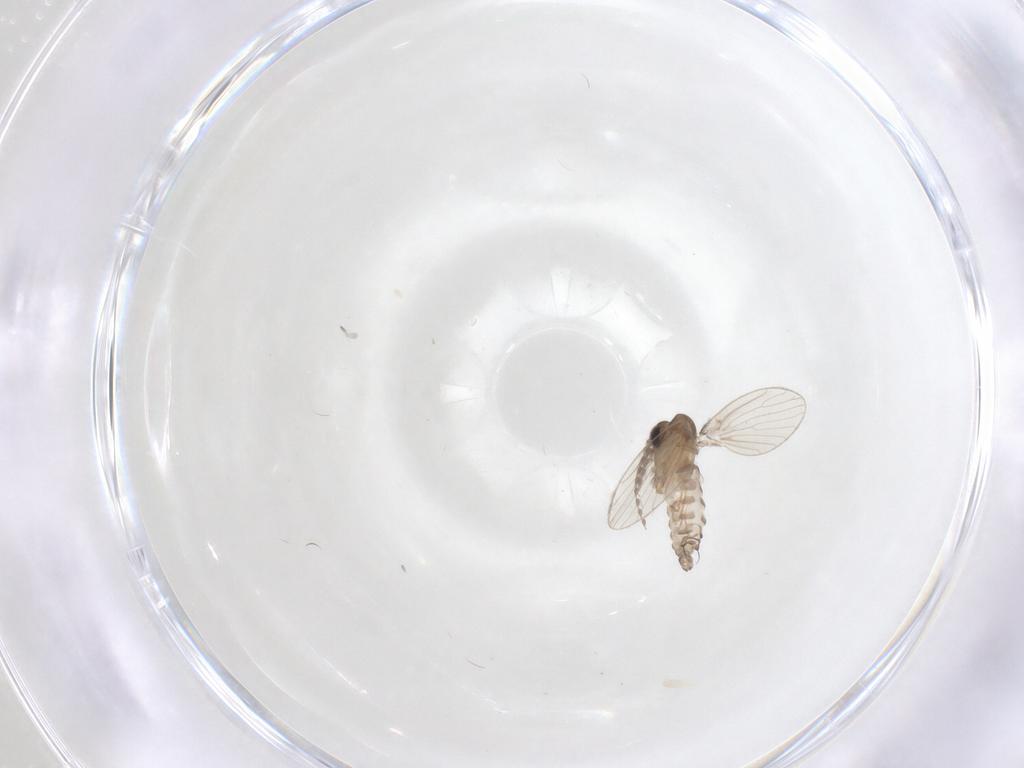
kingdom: Animalia
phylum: Arthropoda
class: Insecta
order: Diptera
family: Psychodidae
